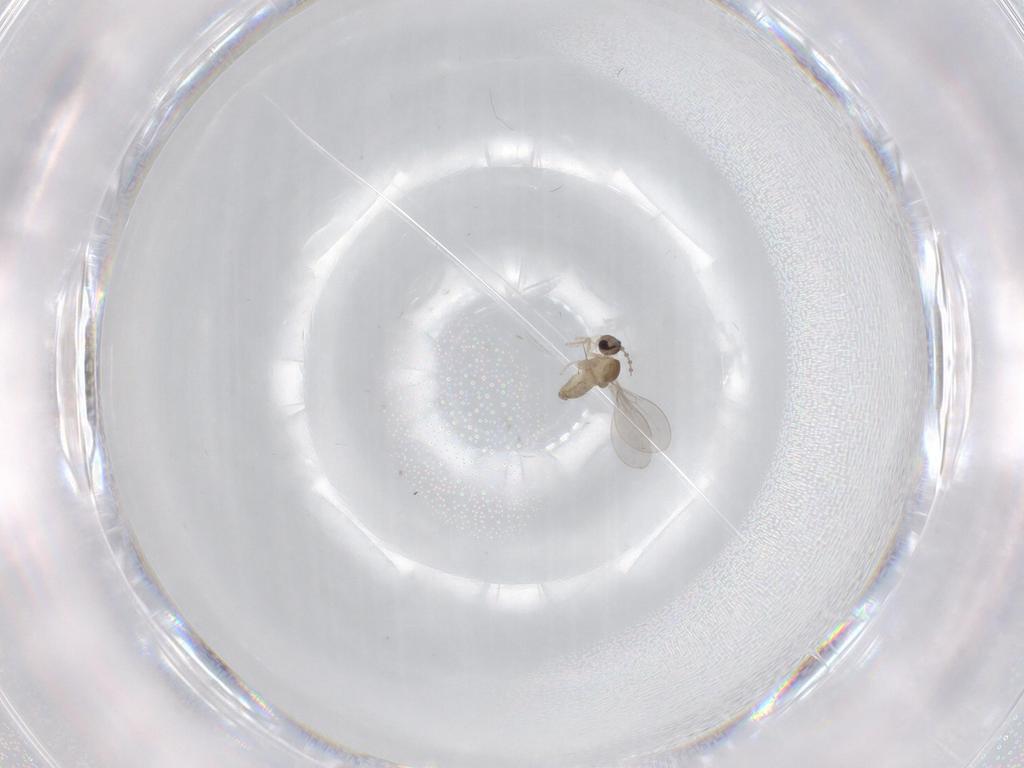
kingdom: Animalia
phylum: Arthropoda
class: Insecta
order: Diptera
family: Cecidomyiidae
